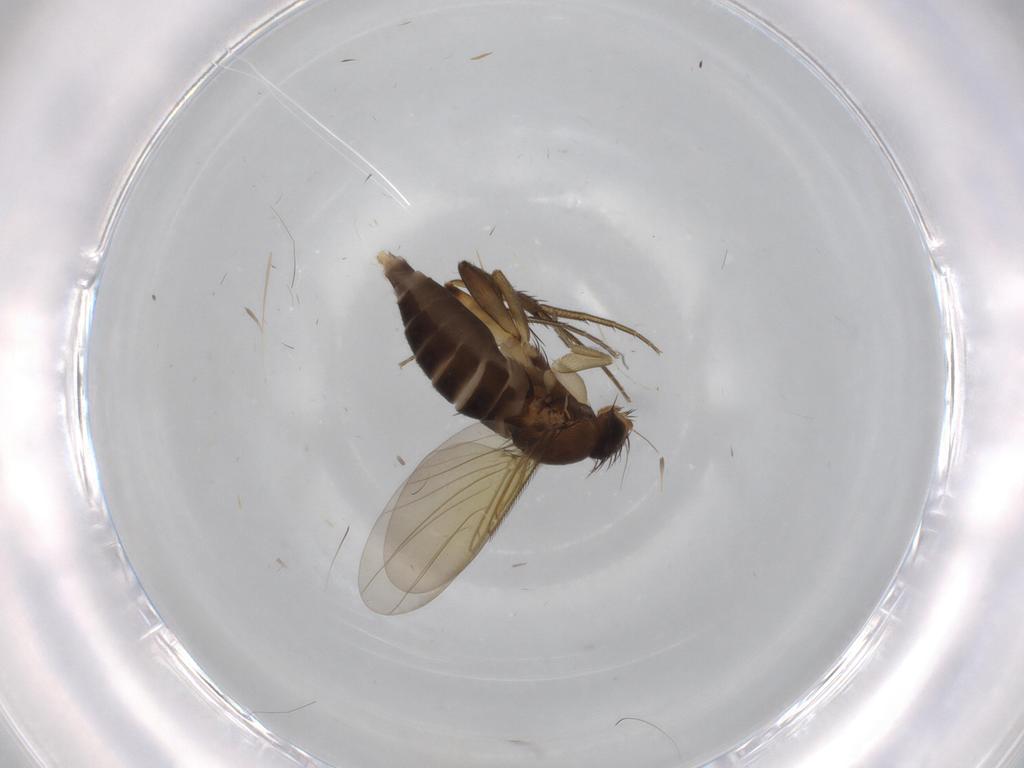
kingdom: Animalia
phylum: Arthropoda
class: Insecta
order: Diptera
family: Phoridae
